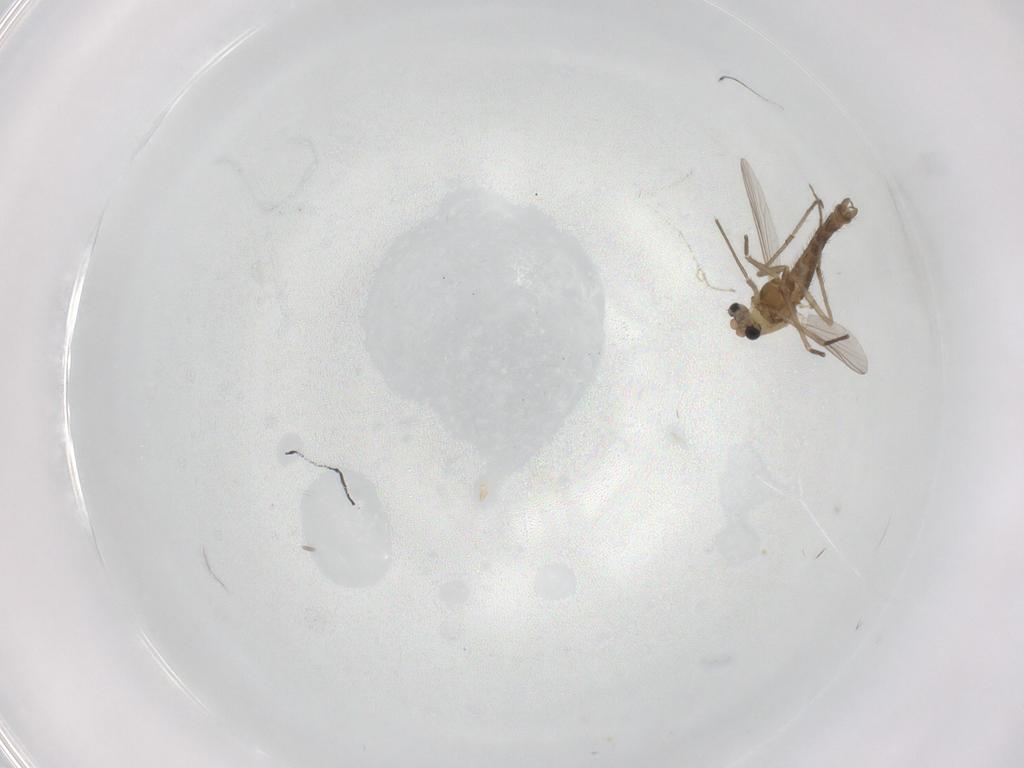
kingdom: Animalia
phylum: Arthropoda
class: Insecta
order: Diptera
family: Chironomidae
